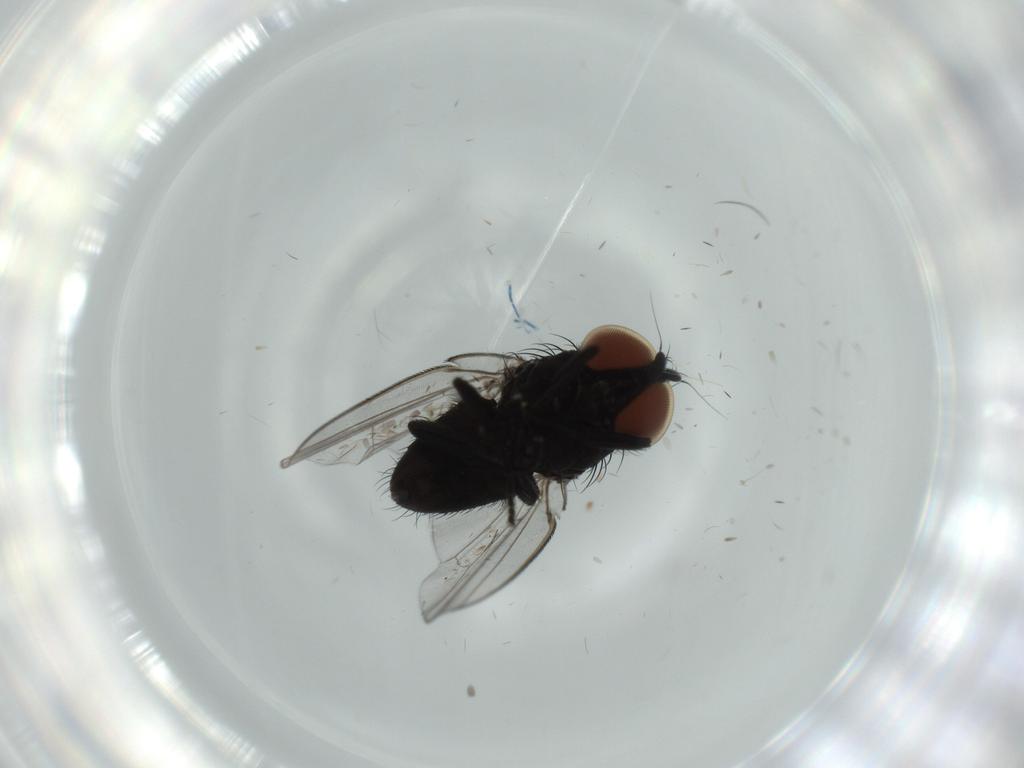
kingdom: Animalia
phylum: Arthropoda
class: Insecta
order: Diptera
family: Milichiidae
